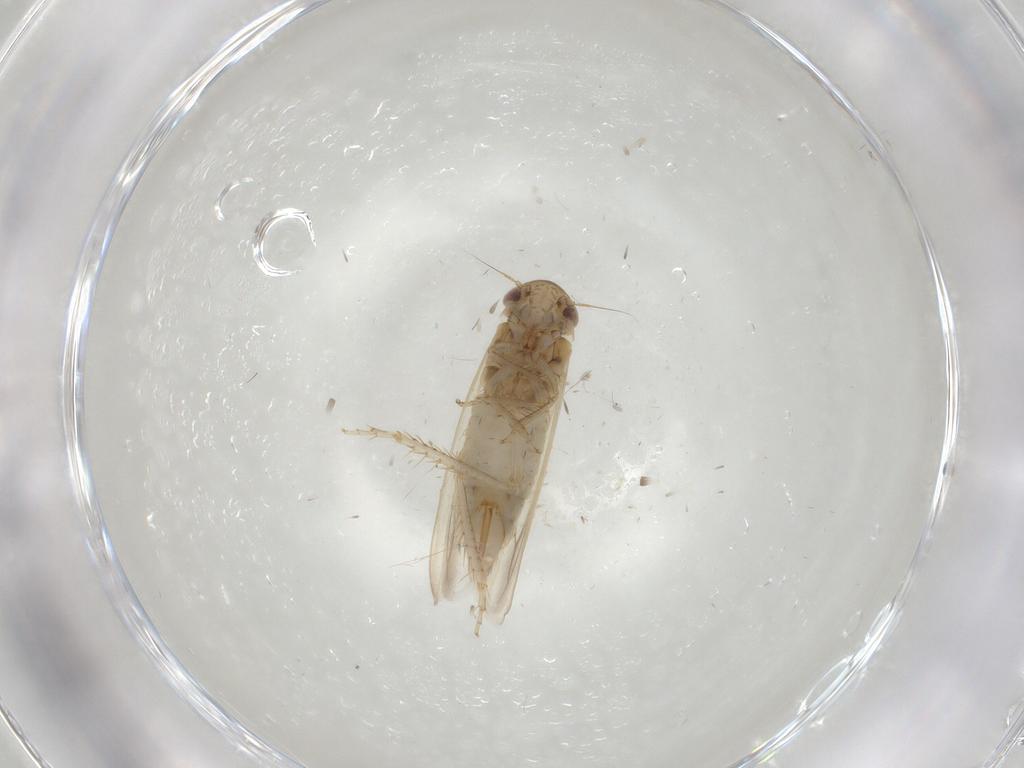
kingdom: Animalia
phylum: Arthropoda
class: Insecta
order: Hemiptera
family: Cicadellidae
